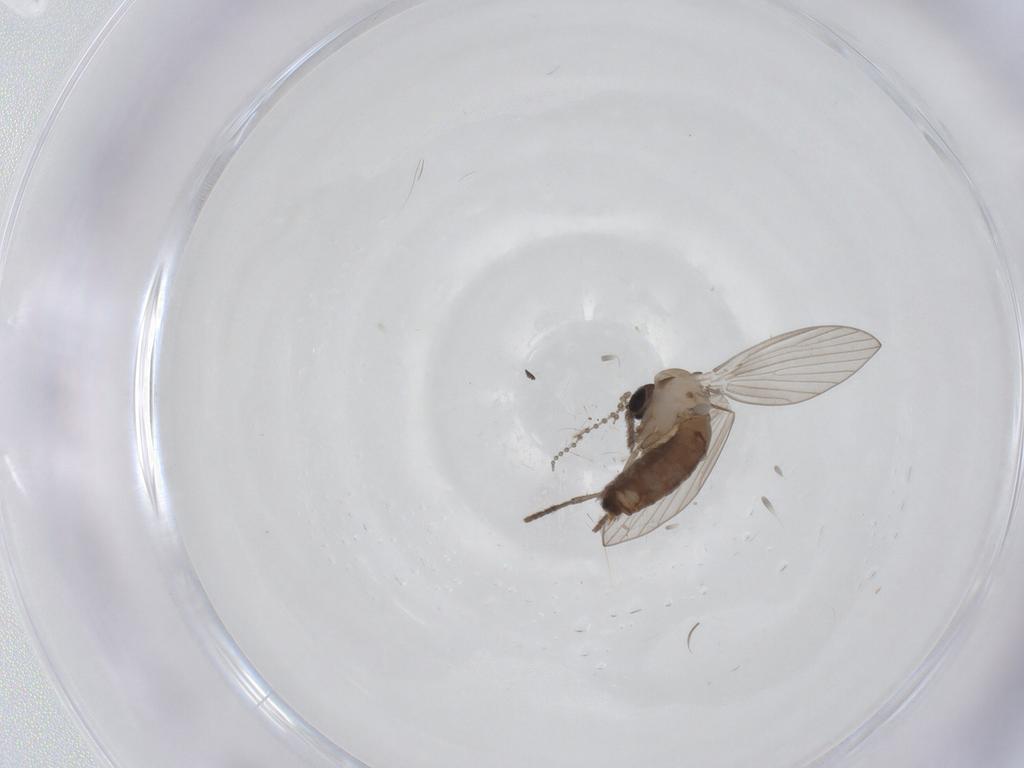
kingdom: Animalia
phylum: Arthropoda
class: Insecta
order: Diptera
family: Psychodidae
